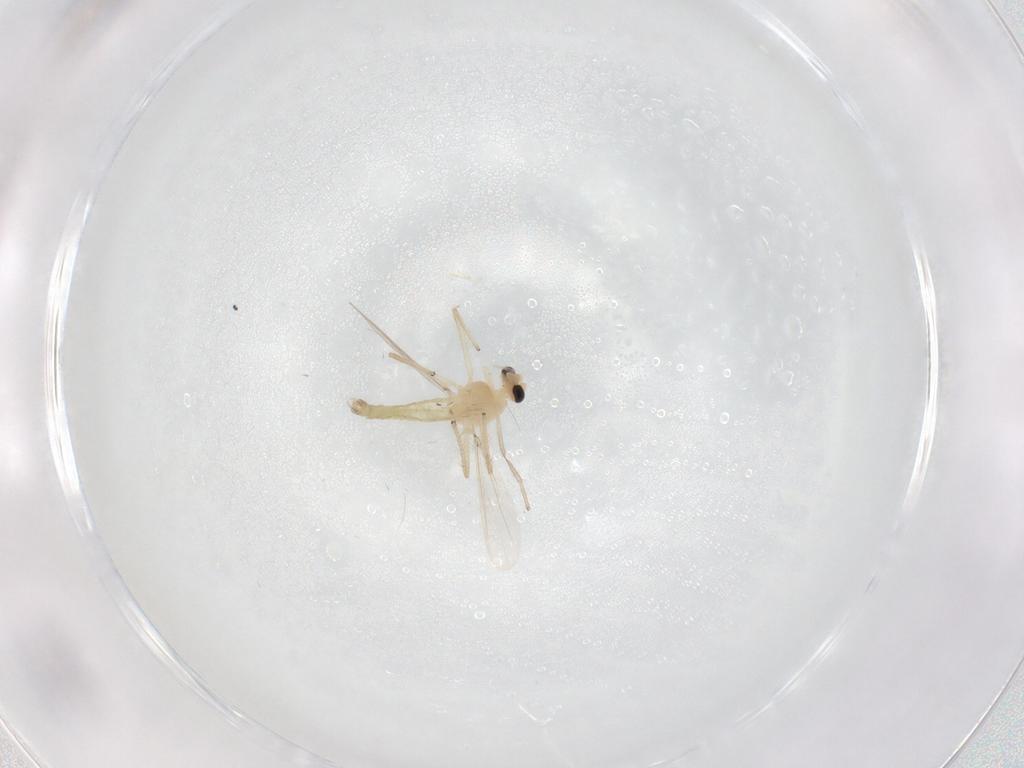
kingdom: Animalia
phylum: Arthropoda
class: Insecta
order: Diptera
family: Chironomidae
